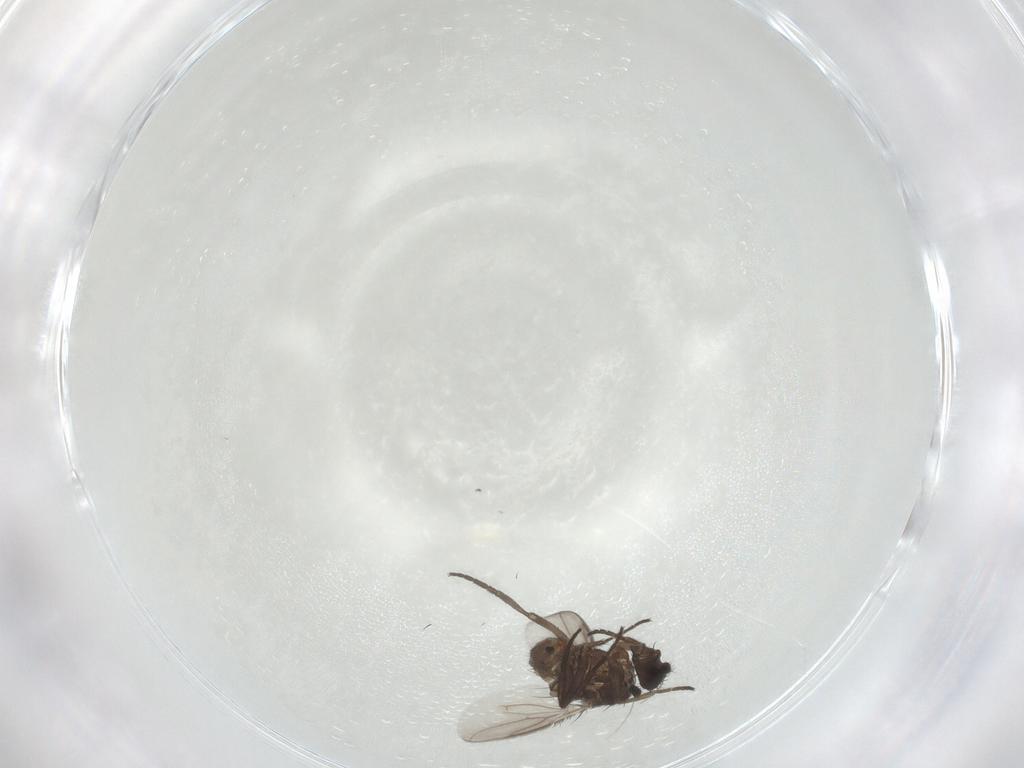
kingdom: Animalia
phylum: Arthropoda
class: Insecta
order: Diptera
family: Sphaeroceridae
